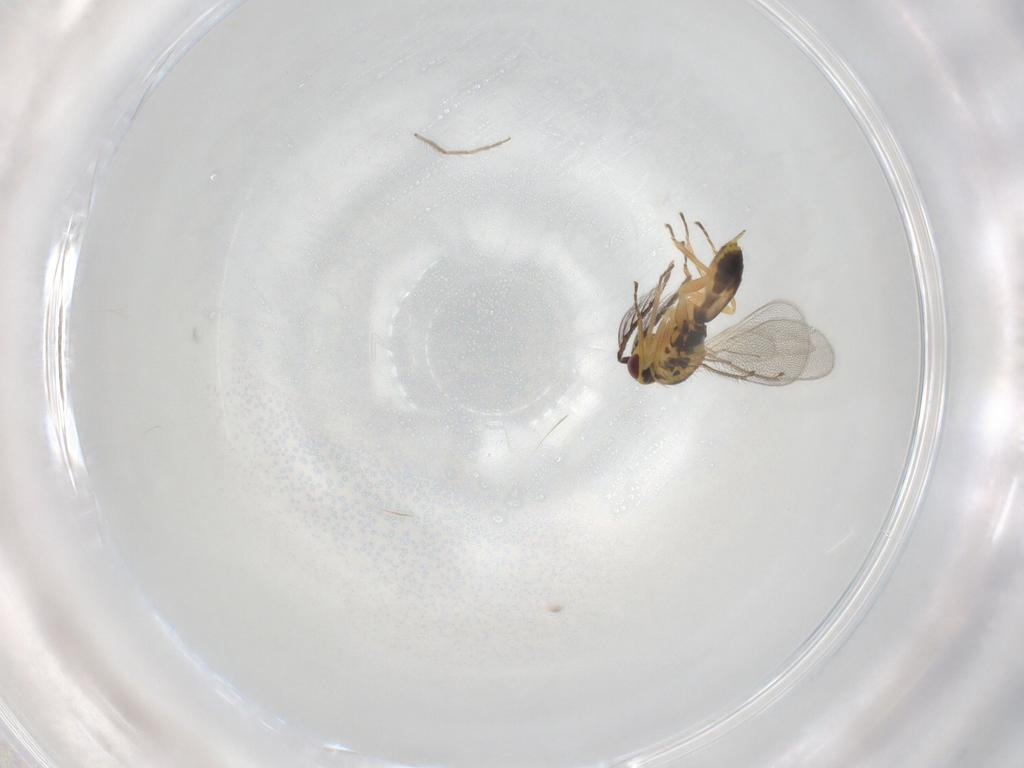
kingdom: Animalia
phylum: Arthropoda
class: Insecta
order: Hymenoptera
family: Eulophidae
